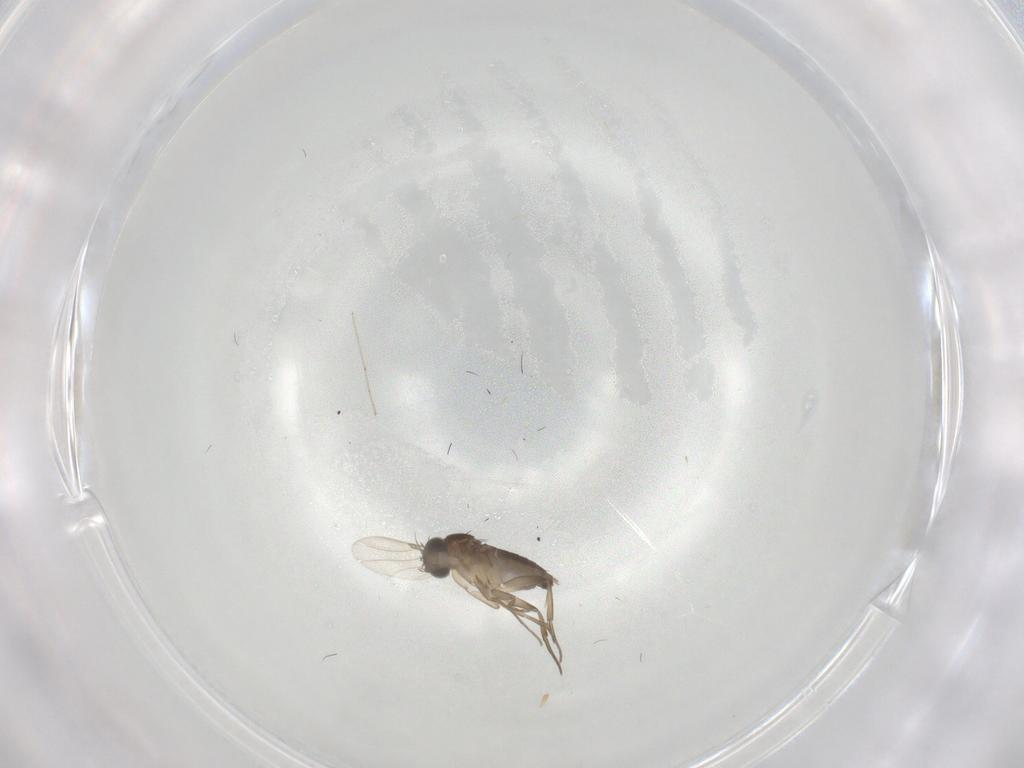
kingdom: Animalia
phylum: Arthropoda
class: Insecta
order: Diptera
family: Phoridae
